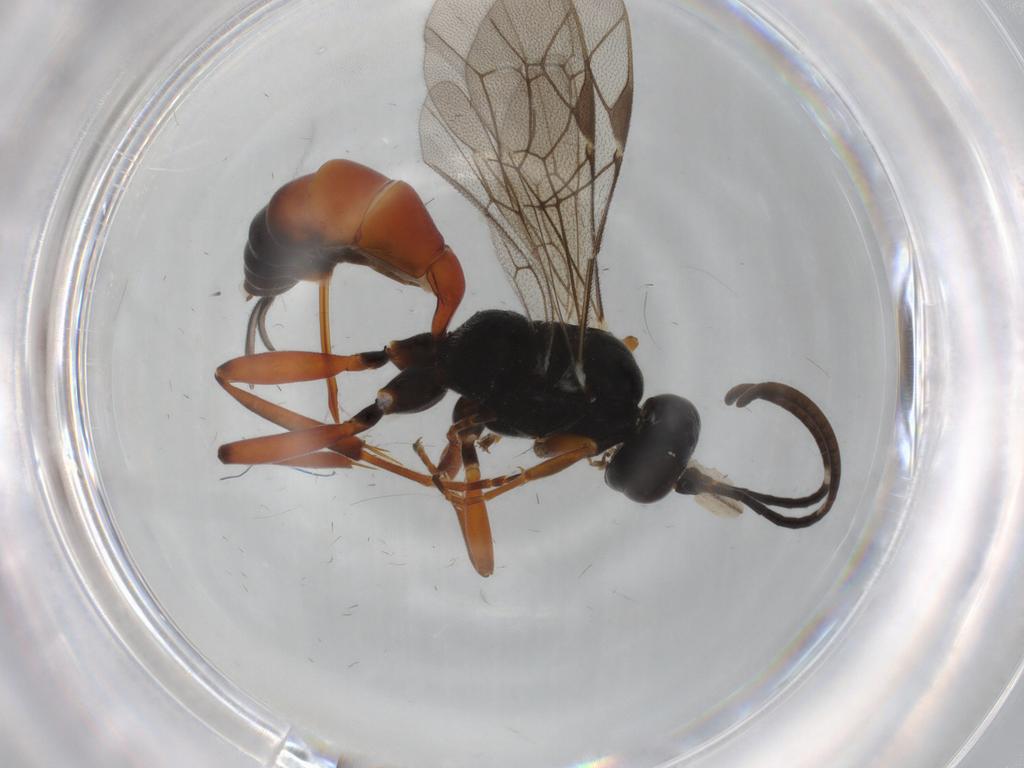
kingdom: Animalia
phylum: Arthropoda
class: Insecta
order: Hymenoptera
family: Ichneumonidae
